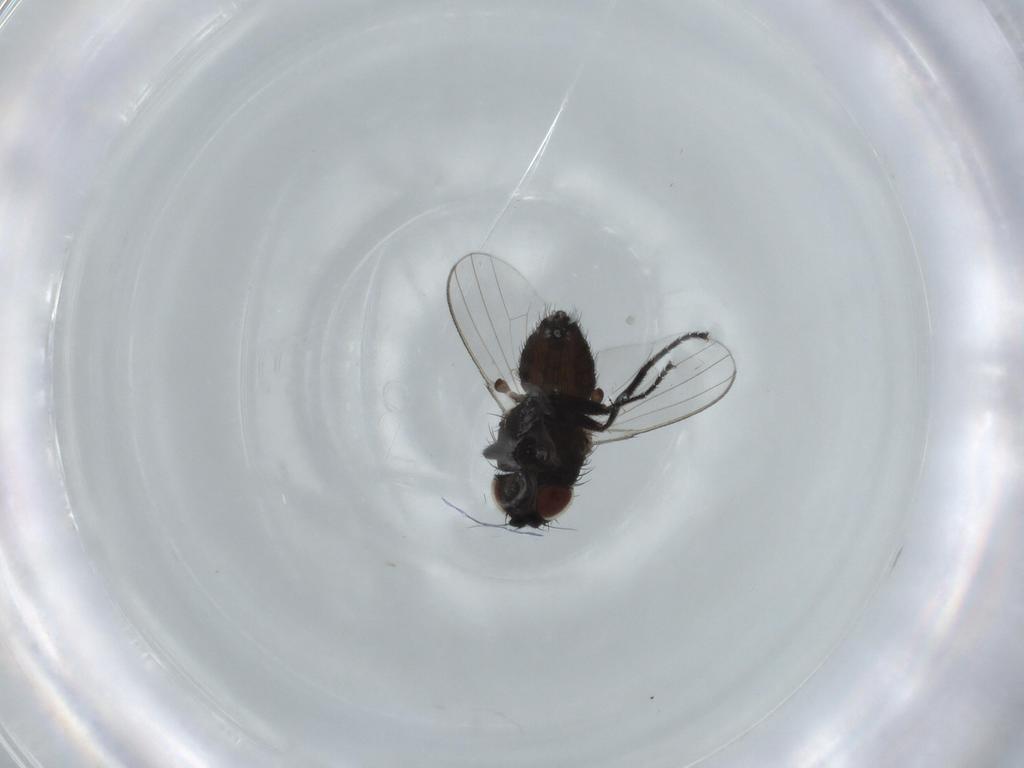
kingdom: Animalia
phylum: Arthropoda
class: Insecta
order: Diptera
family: Milichiidae
